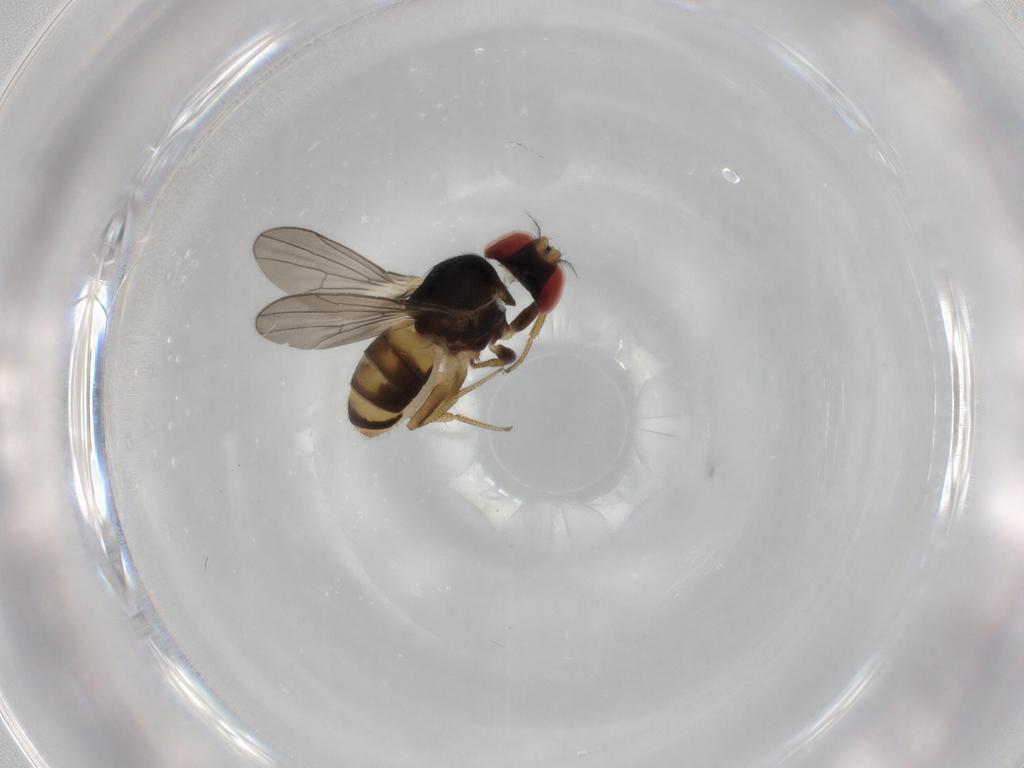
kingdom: Animalia
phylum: Arthropoda
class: Insecta
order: Diptera
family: Drosophilidae
